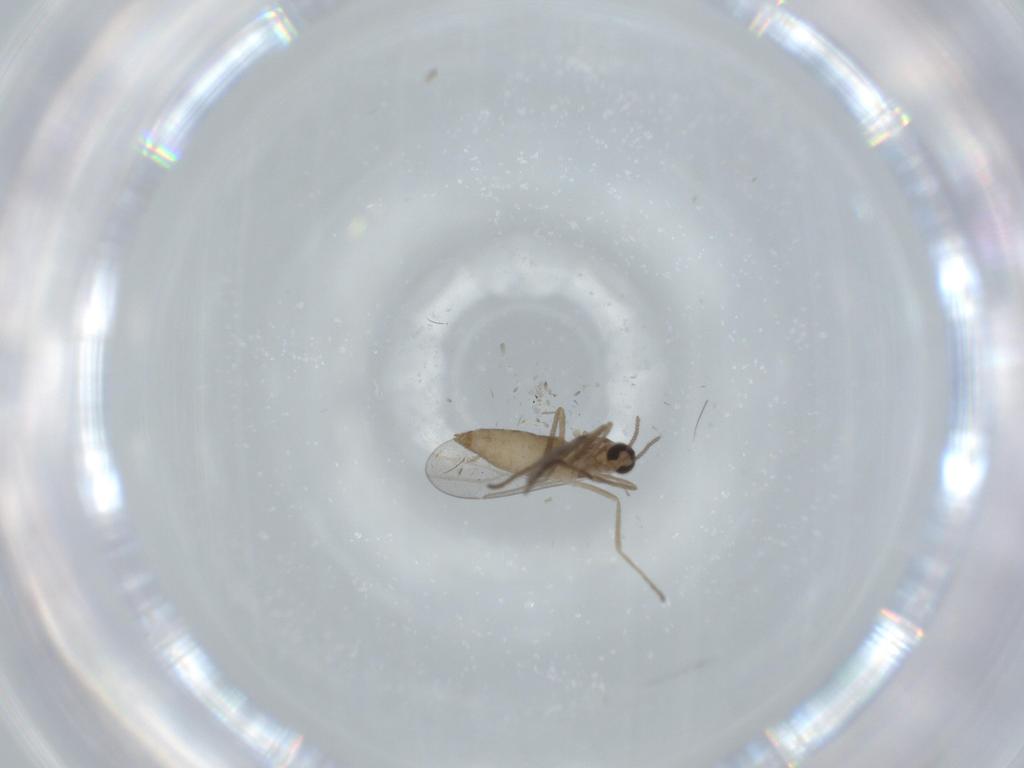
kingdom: Animalia
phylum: Arthropoda
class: Insecta
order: Diptera
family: Cecidomyiidae
